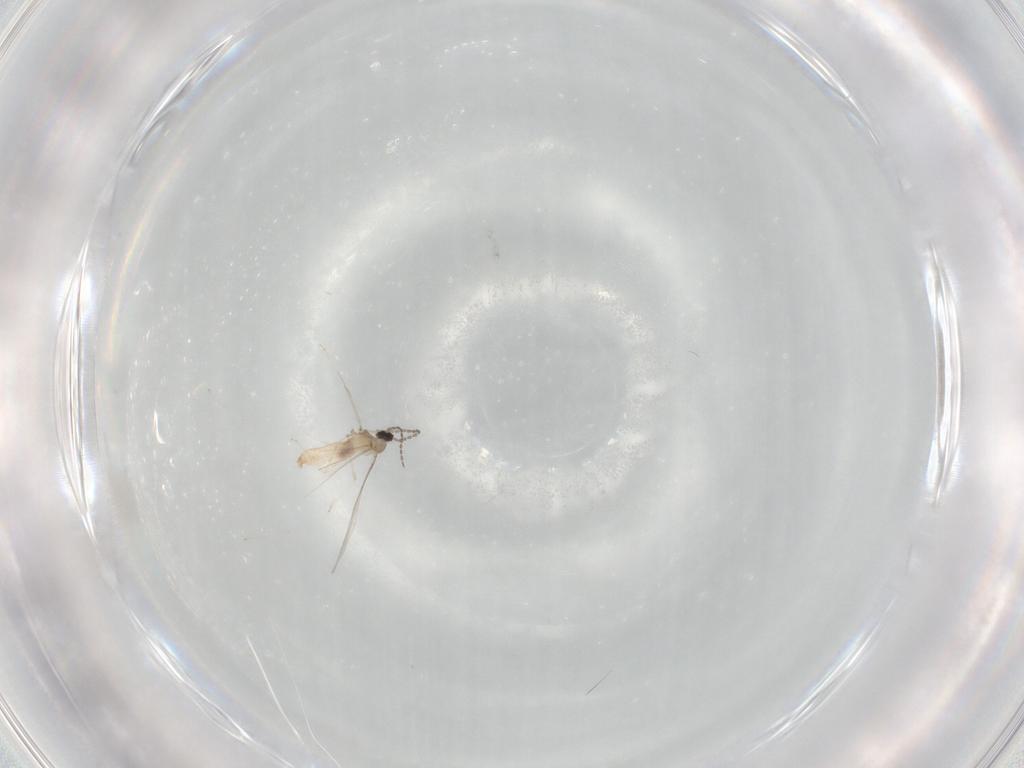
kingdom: Animalia
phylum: Arthropoda
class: Insecta
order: Diptera
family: Cecidomyiidae
